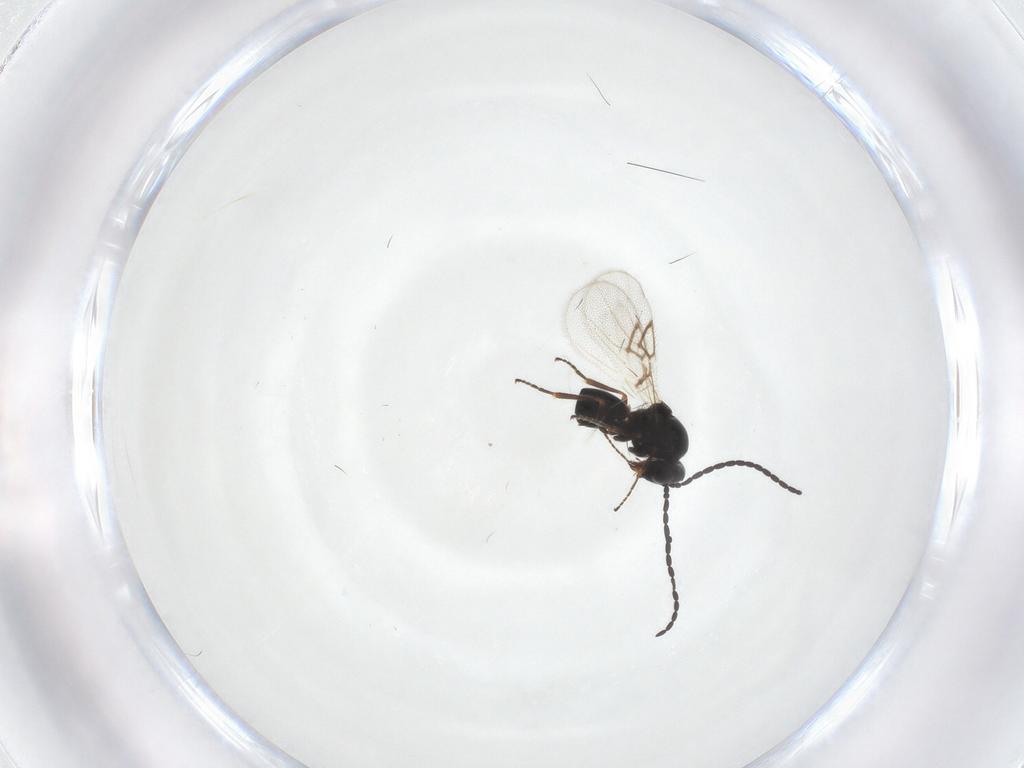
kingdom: Animalia
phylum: Arthropoda
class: Insecta
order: Hymenoptera
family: Figitidae
